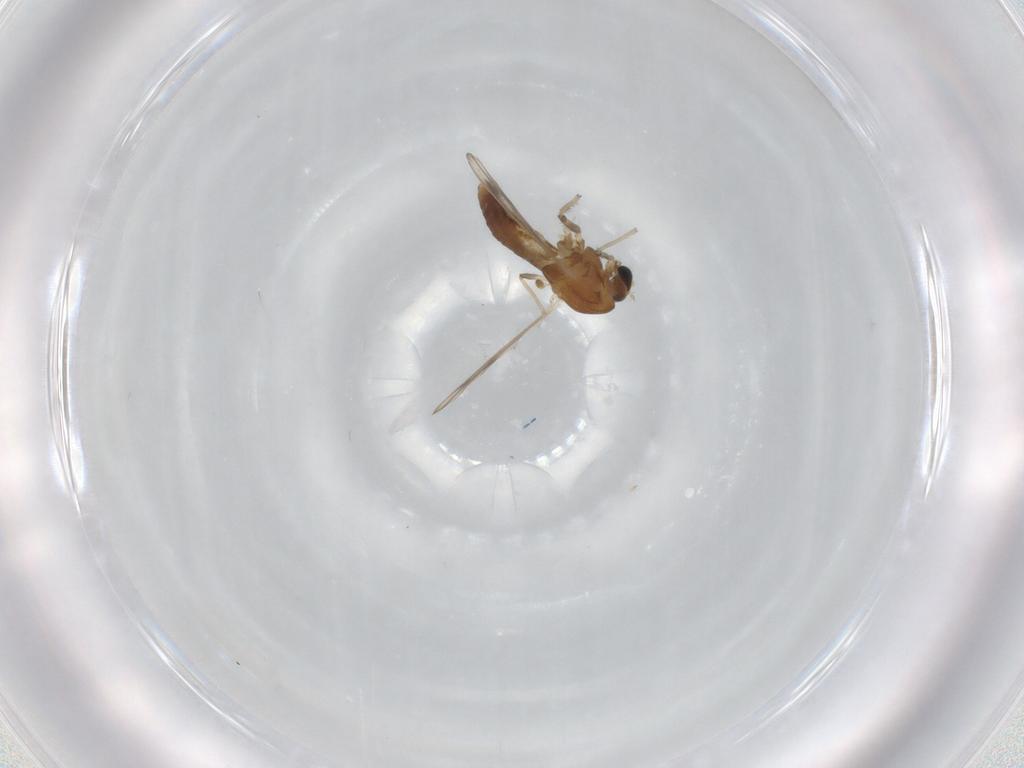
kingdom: Animalia
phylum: Arthropoda
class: Insecta
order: Diptera
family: Chironomidae
